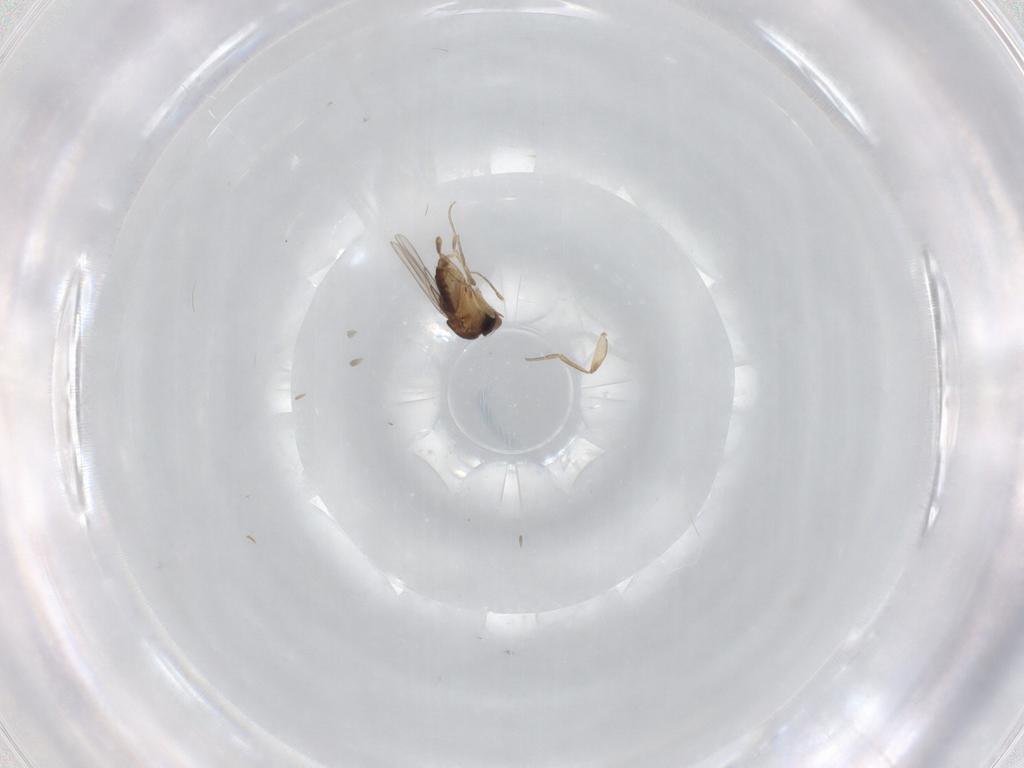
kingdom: Animalia
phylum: Arthropoda
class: Insecta
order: Diptera
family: Phoridae
